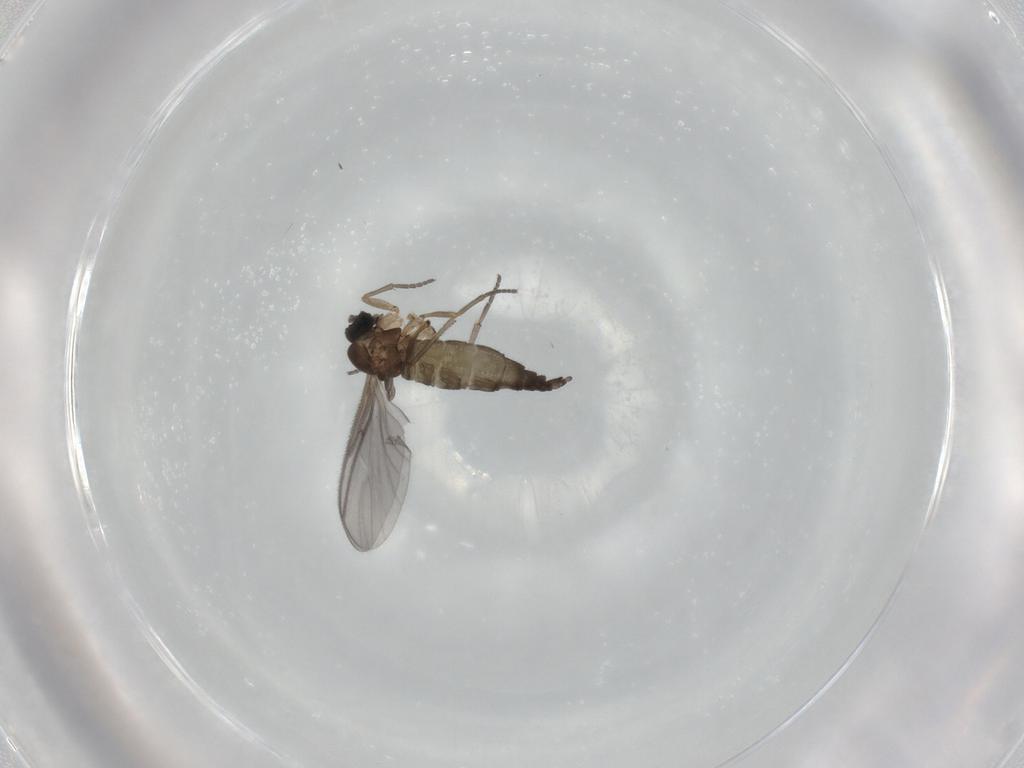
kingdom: Animalia
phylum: Arthropoda
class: Insecta
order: Diptera
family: Sciaridae
